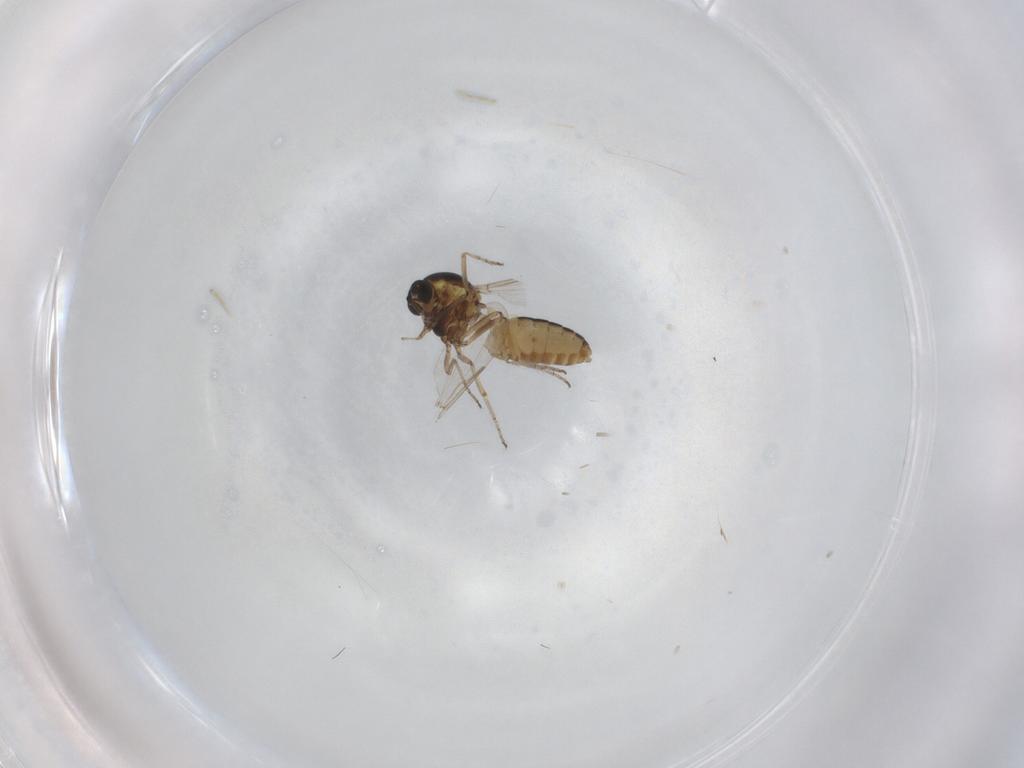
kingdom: Animalia
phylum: Arthropoda
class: Insecta
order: Diptera
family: Ceratopogonidae
